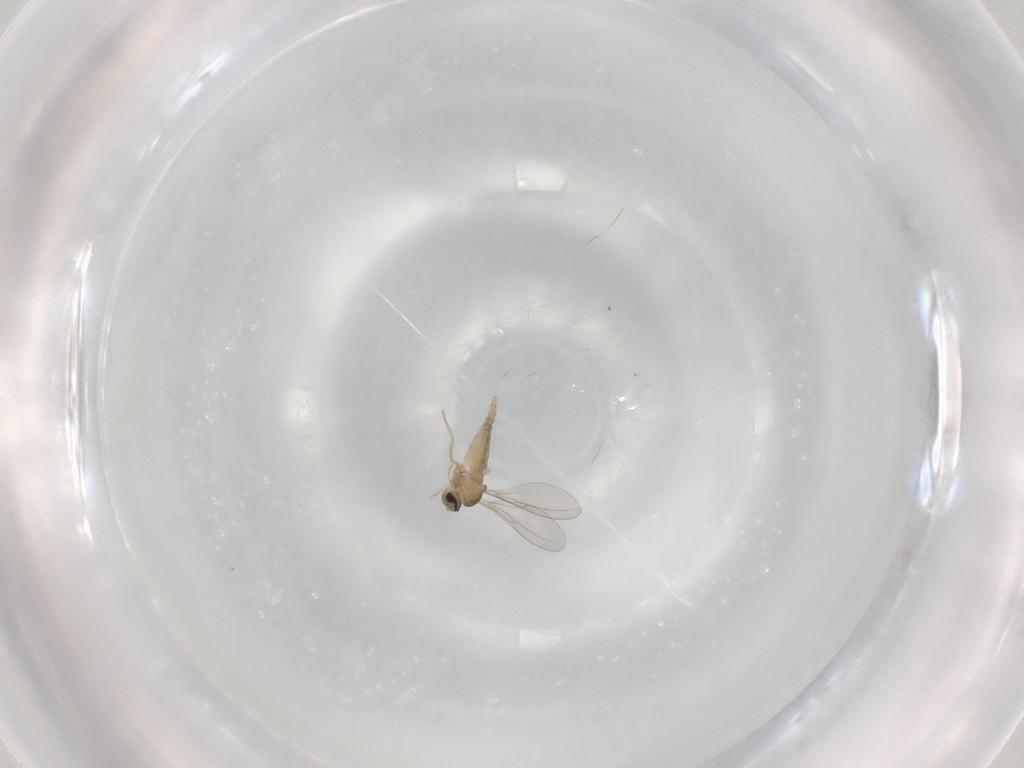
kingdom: Animalia
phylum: Arthropoda
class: Insecta
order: Diptera
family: Cecidomyiidae
